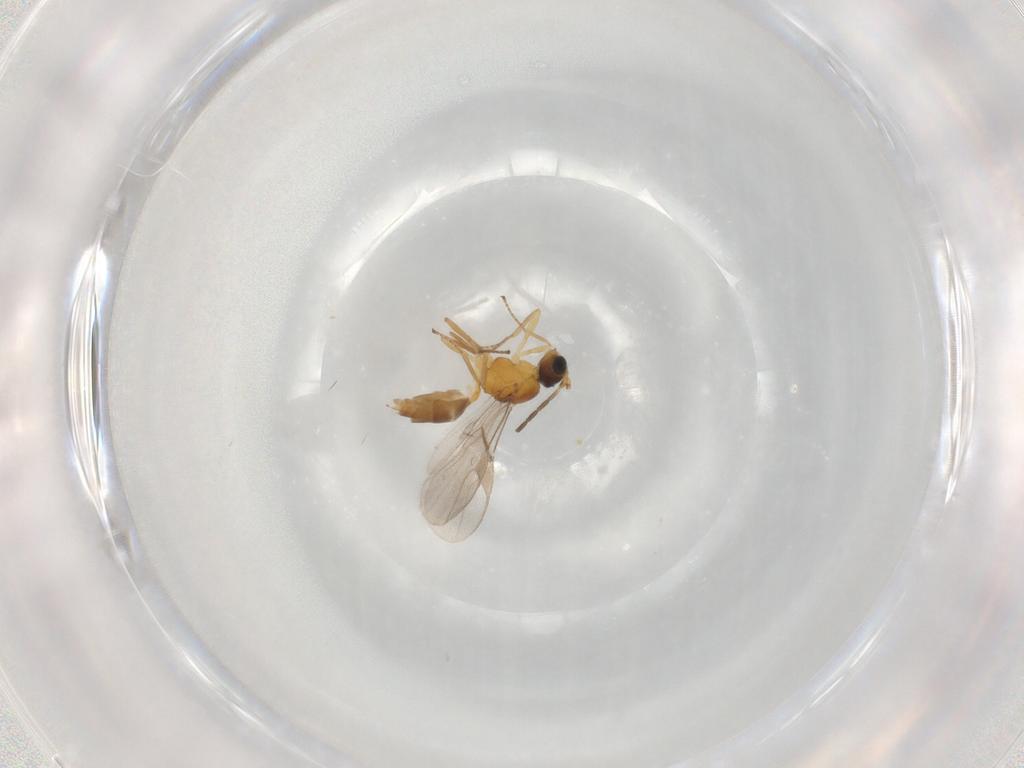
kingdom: Animalia
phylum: Arthropoda
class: Insecta
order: Hymenoptera
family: Braconidae
